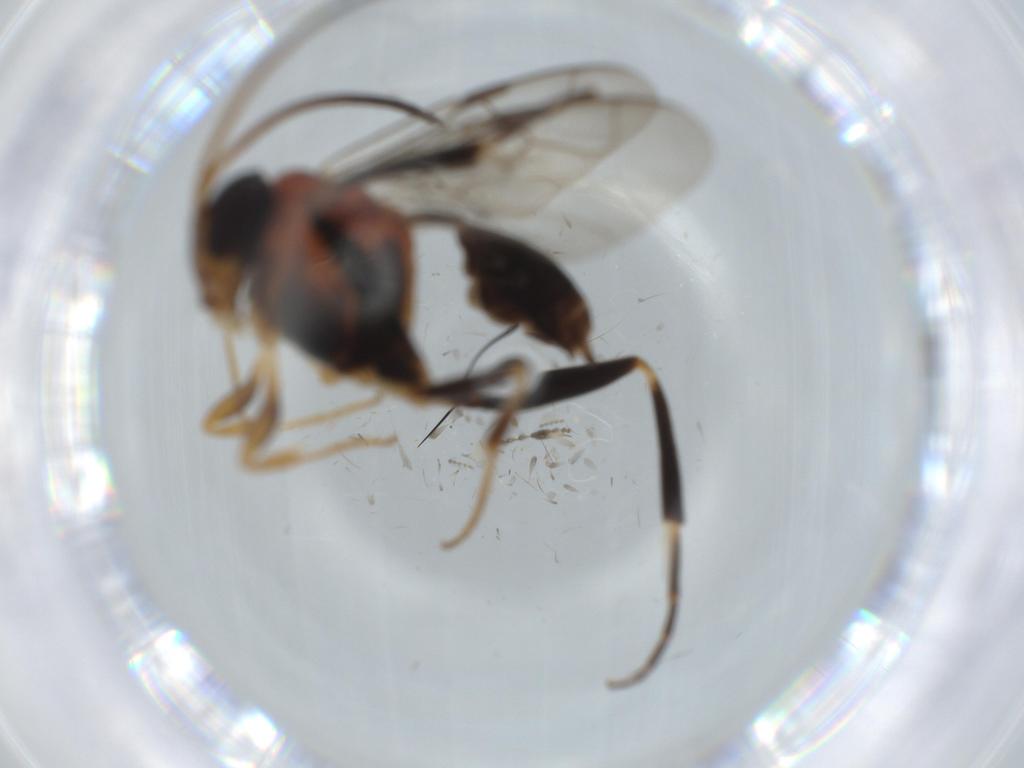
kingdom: Animalia
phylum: Arthropoda
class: Insecta
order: Hymenoptera
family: Evaniidae
